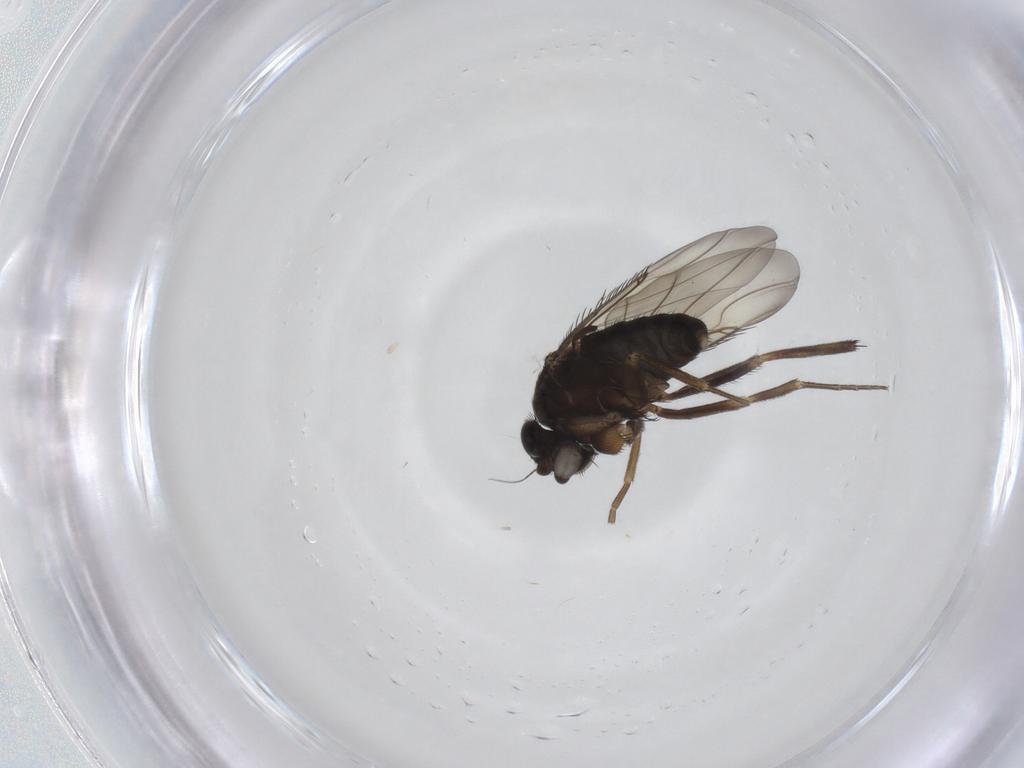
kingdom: Animalia
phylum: Arthropoda
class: Insecta
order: Diptera
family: Phoridae
